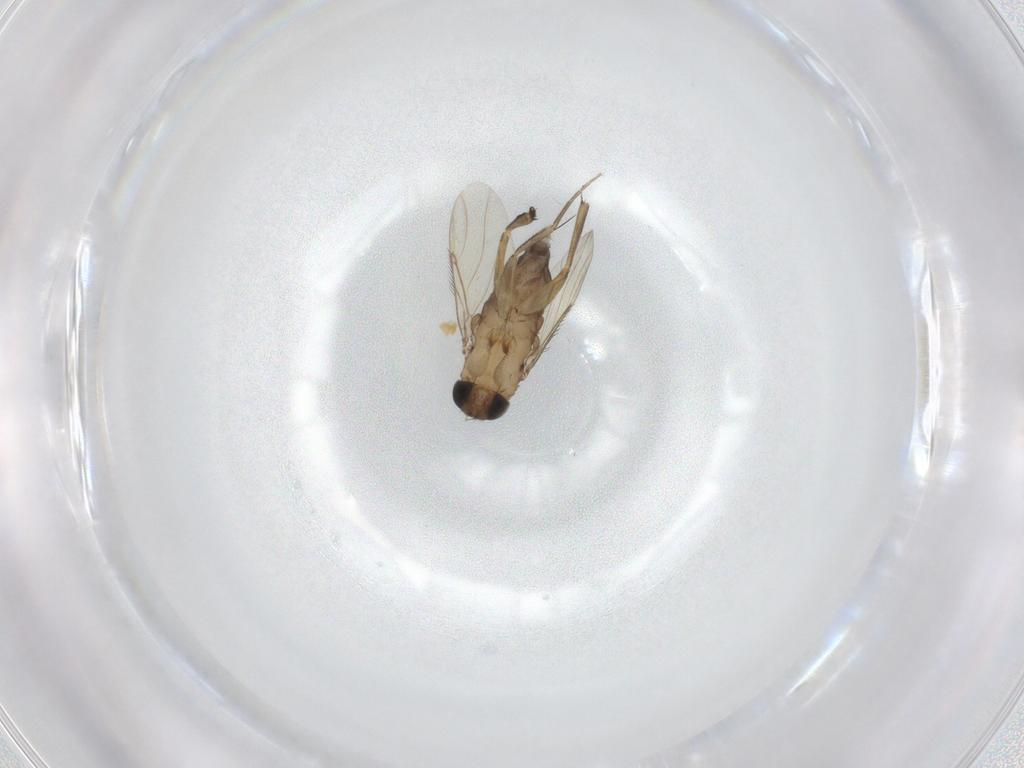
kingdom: Animalia
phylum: Arthropoda
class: Insecta
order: Diptera
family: Phoridae
